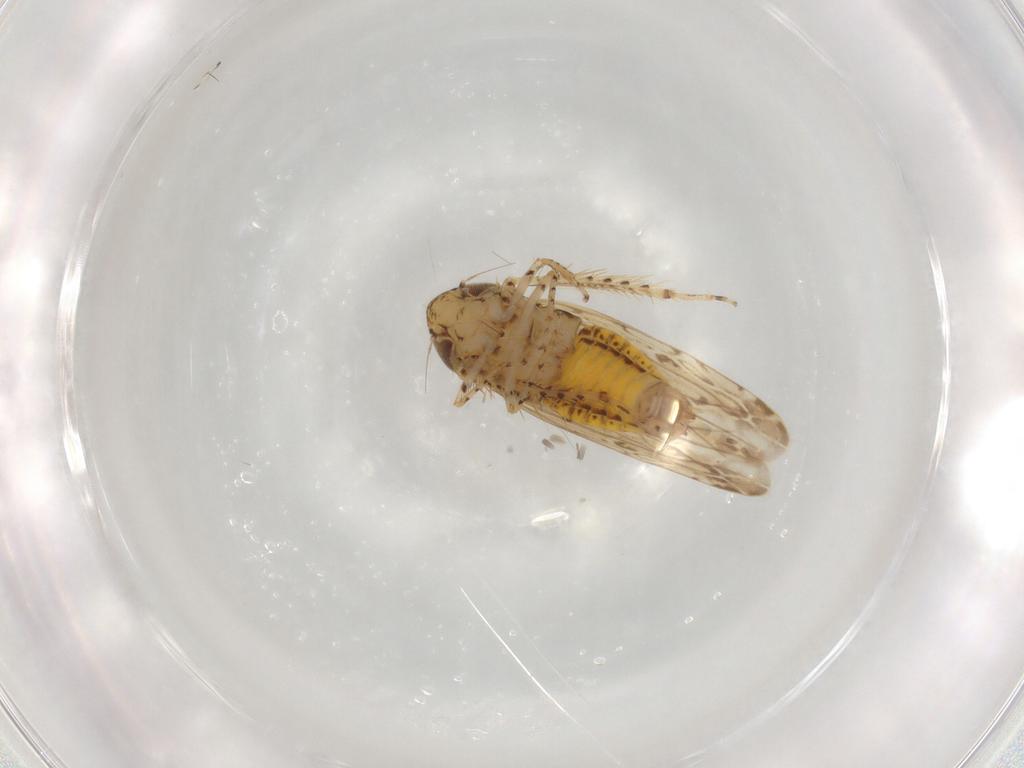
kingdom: Animalia
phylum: Arthropoda
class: Insecta
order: Hemiptera
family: Cicadellidae
